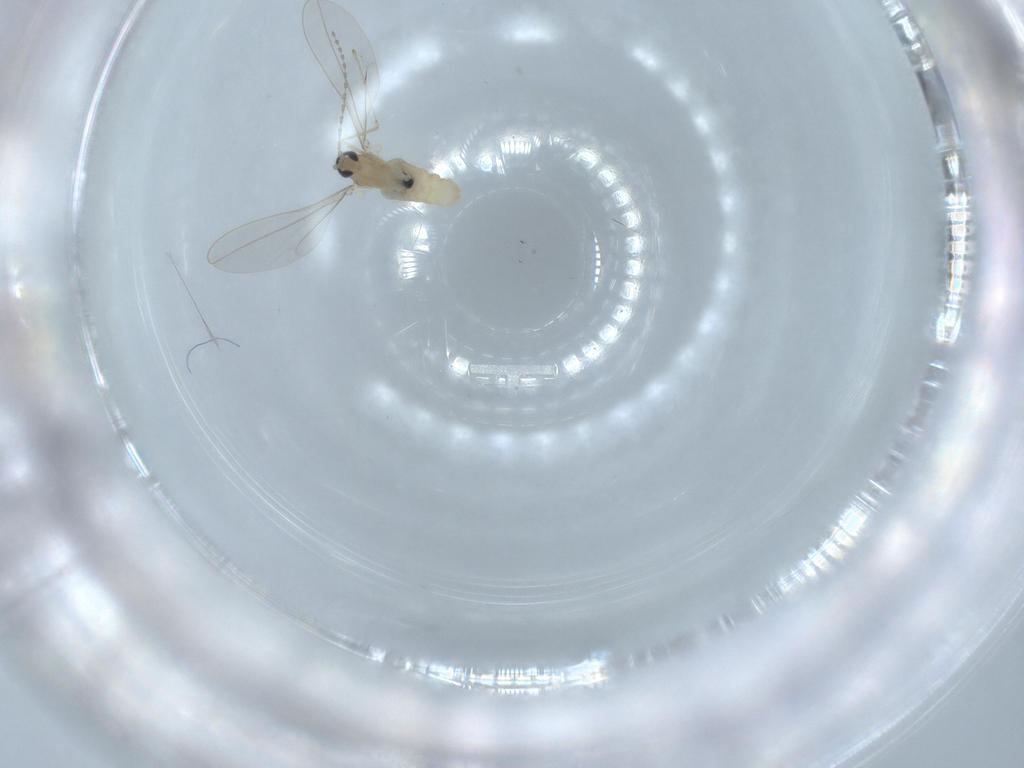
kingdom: Animalia
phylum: Arthropoda
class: Insecta
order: Diptera
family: Cecidomyiidae
